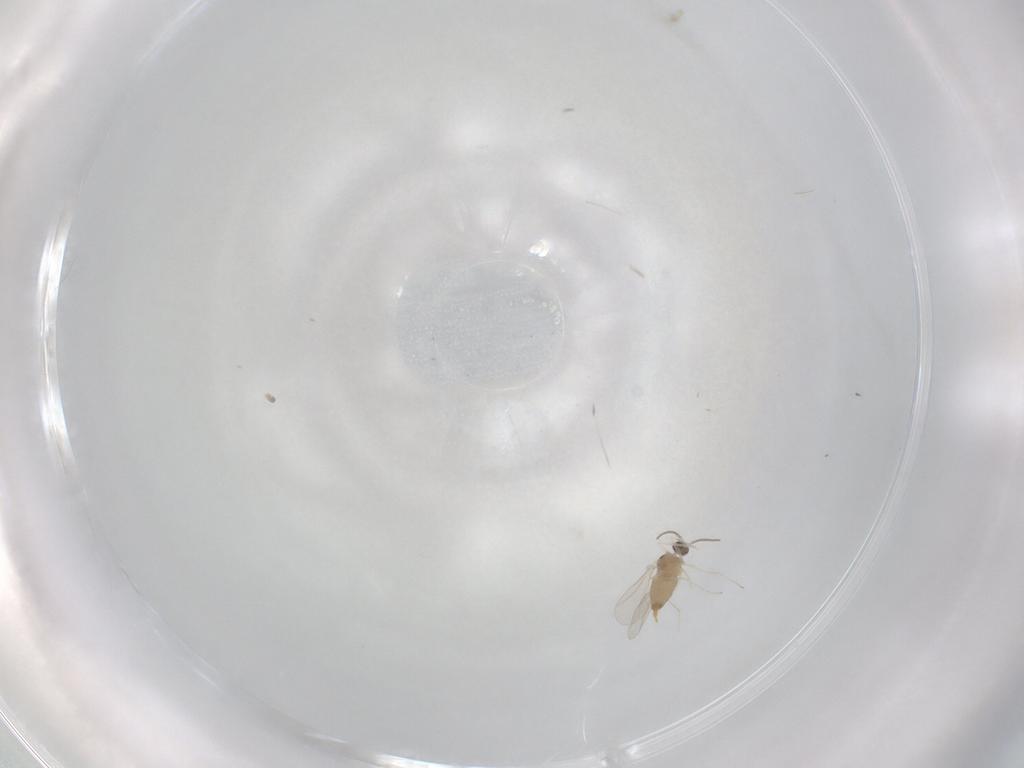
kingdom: Animalia
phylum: Arthropoda
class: Insecta
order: Diptera
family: Cecidomyiidae
